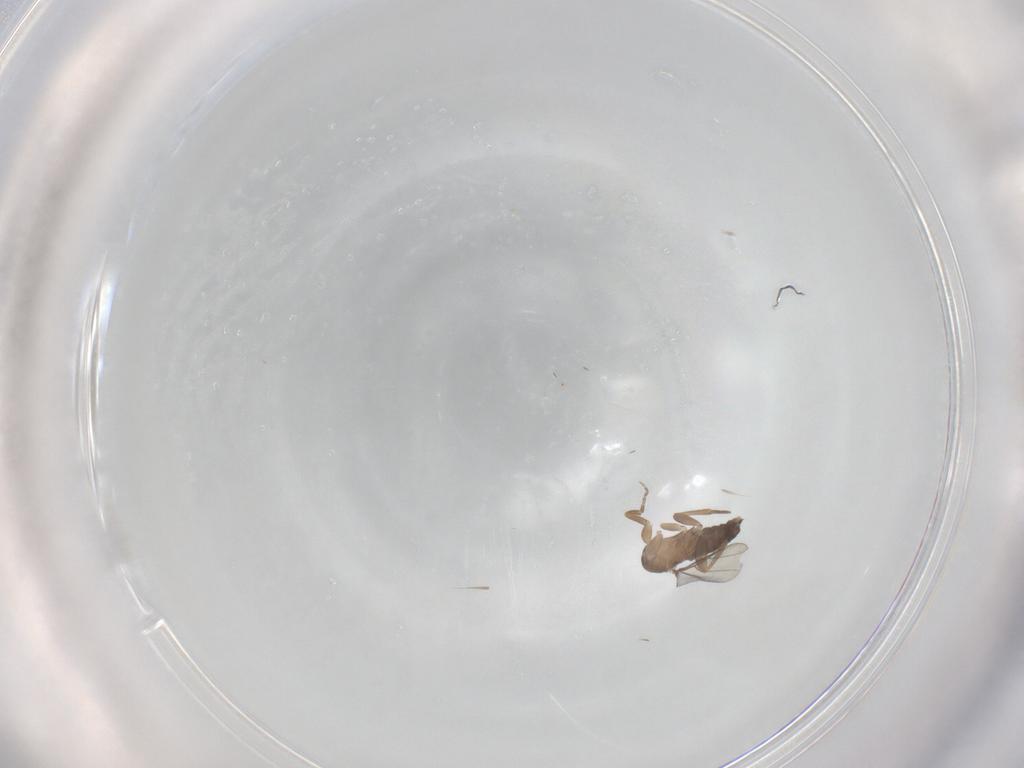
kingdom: Animalia
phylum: Arthropoda
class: Insecta
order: Diptera
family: Phoridae
